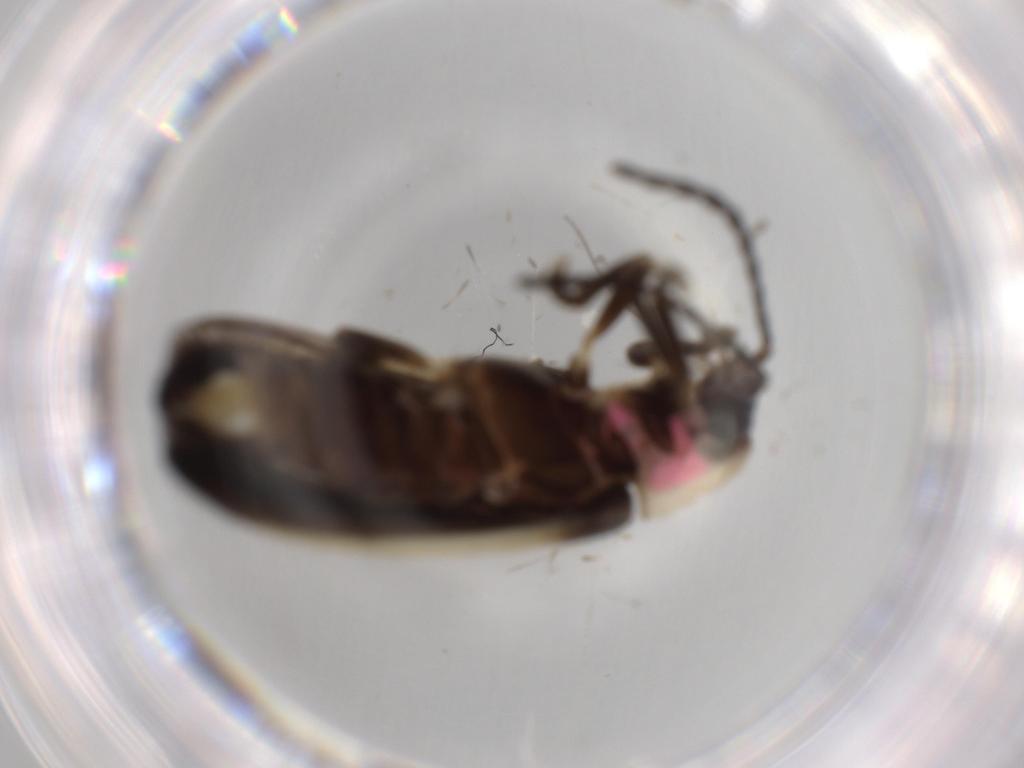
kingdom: Animalia
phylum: Arthropoda
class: Insecta
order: Coleoptera
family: Lampyridae
